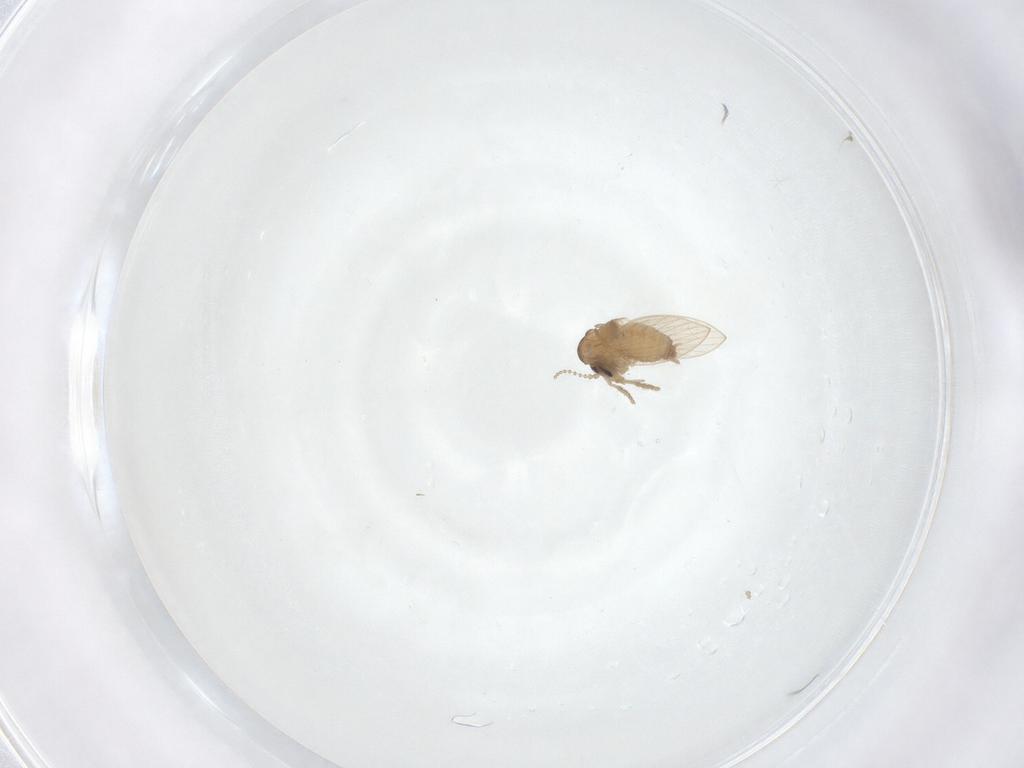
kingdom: Animalia
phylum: Arthropoda
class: Insecta
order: Diptera
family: Psychodidae
